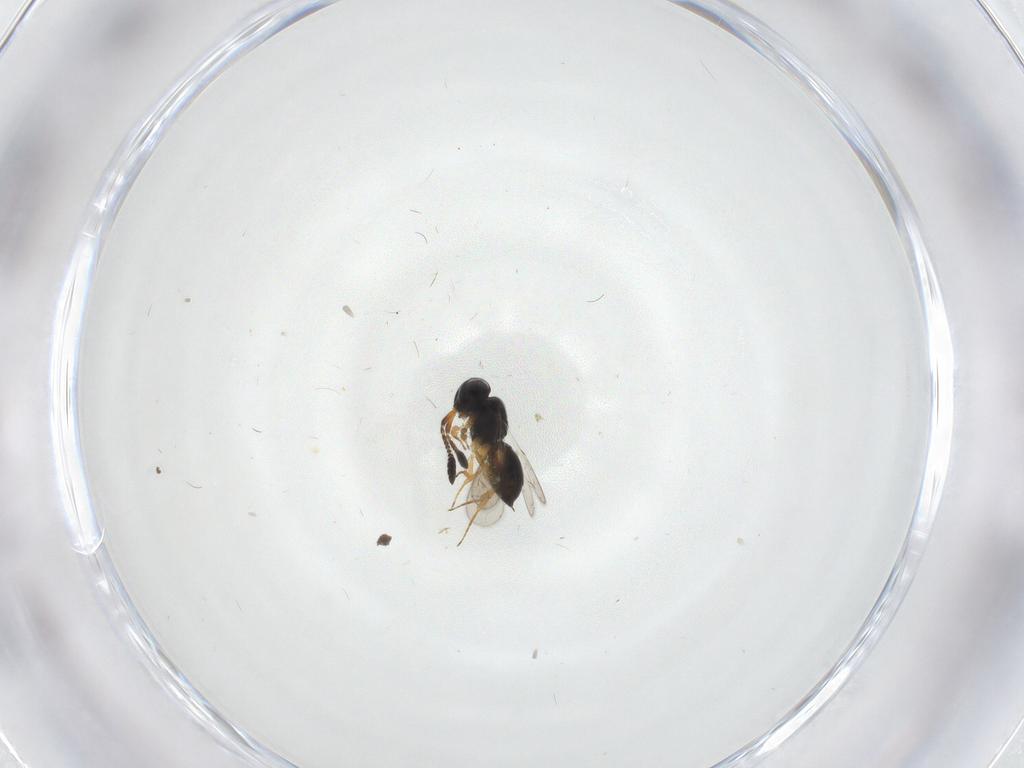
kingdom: Animalia
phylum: Arthropoda
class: Insecta
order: Hymenoptera
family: Scelionidae
